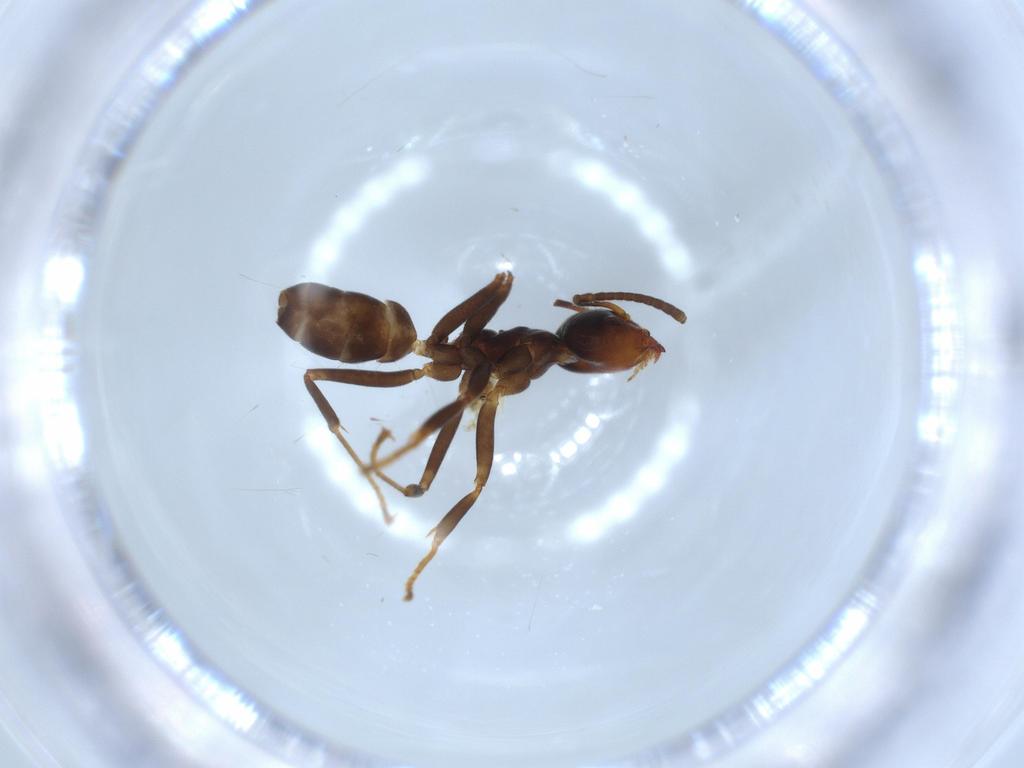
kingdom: Animalia
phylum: Arthropoda
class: Insecta
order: Hymenoptera
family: Formicidae
